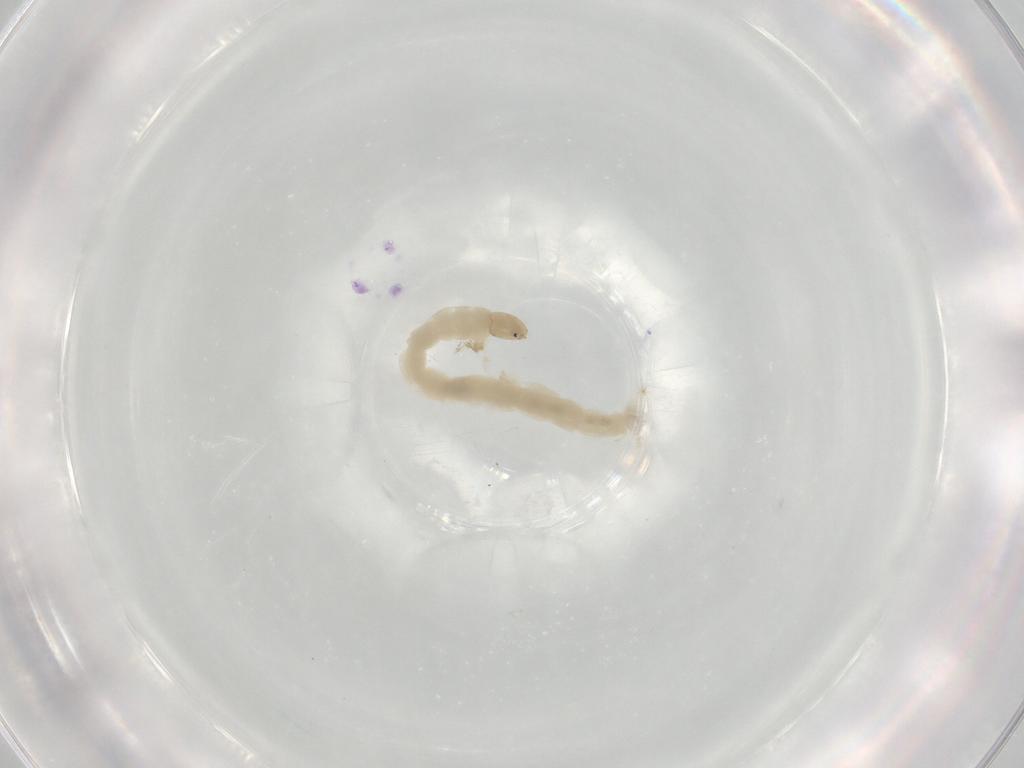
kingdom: Animalia
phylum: Arthropoda
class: Insecta
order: Diptera
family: Chironomidae
